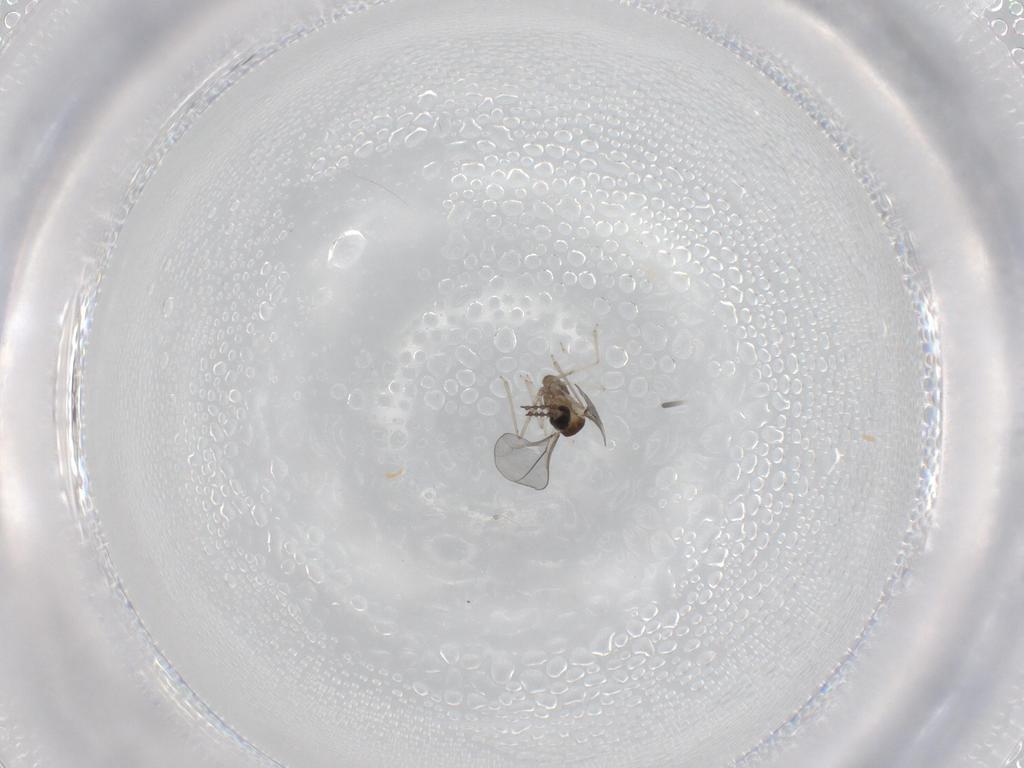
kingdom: Animalia
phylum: Arthropoda
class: Insecta
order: Diptera
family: Cecidomyiidae
